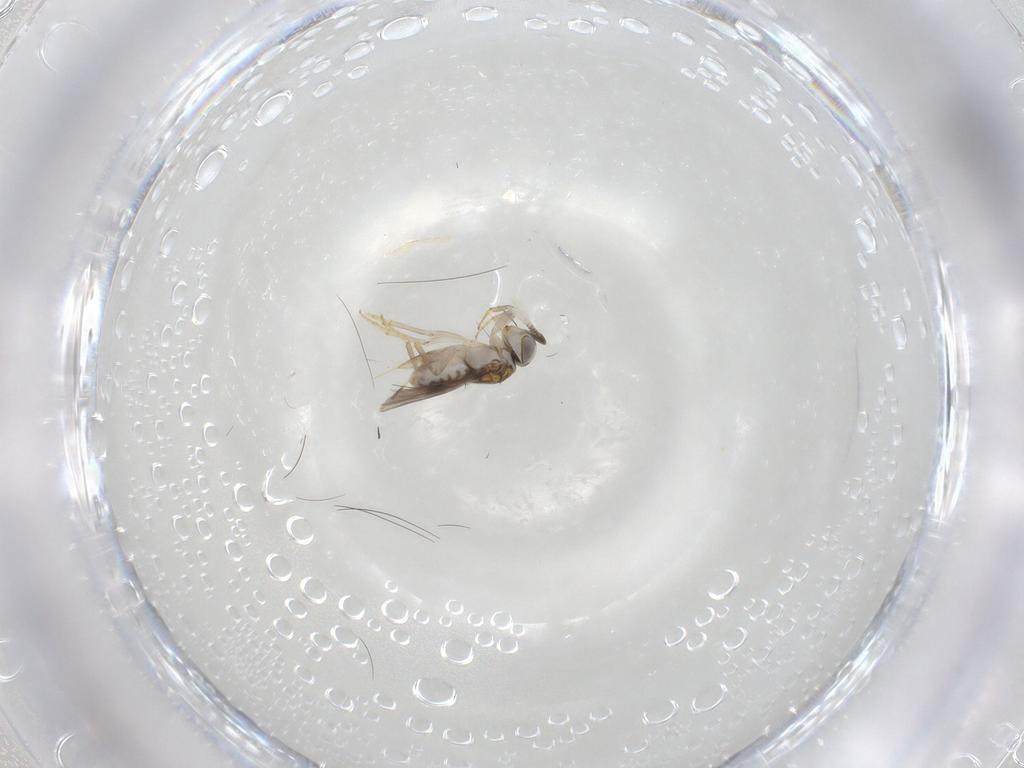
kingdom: Animalia
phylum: Arthropoda
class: Insecta
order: Hymenoptera
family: Encyrtidae
